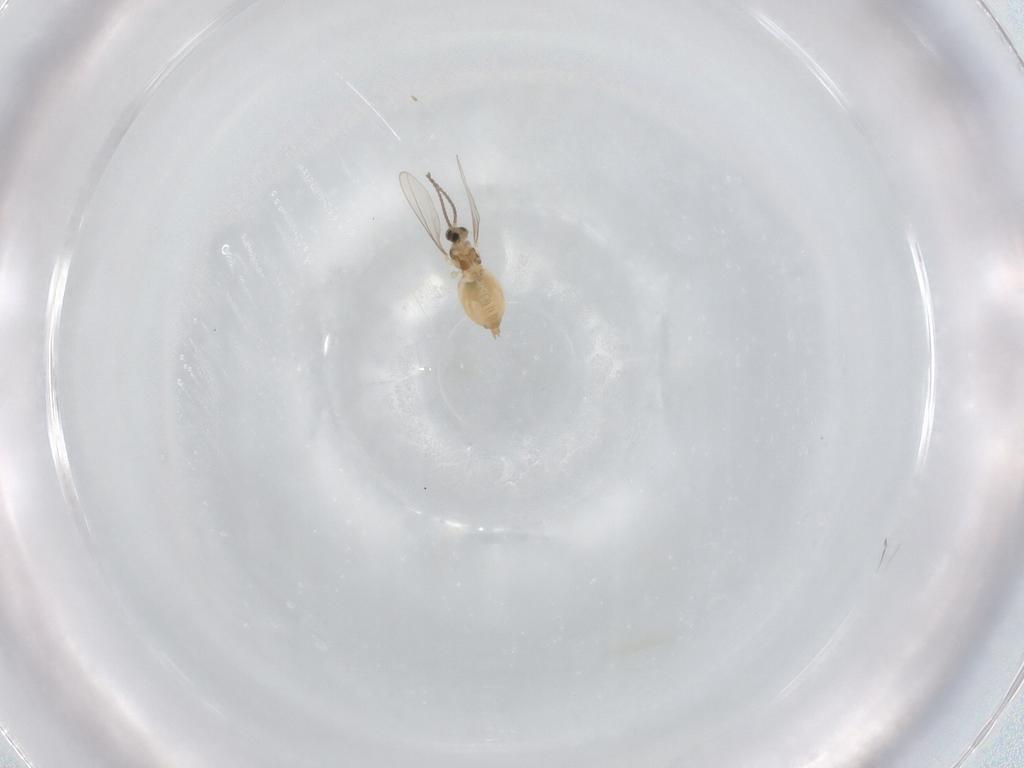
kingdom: Animalia
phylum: Arthropoda
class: Insecta
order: Diptera
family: Cecidomyiidae
